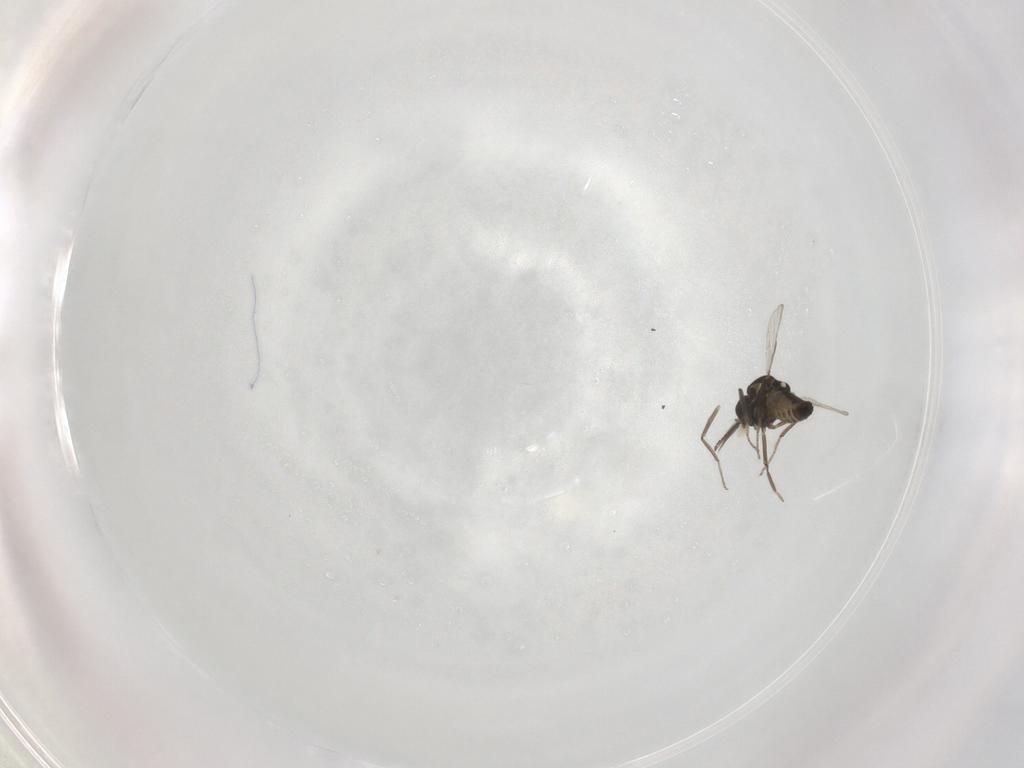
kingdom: Animalia
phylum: Arthropoda
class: Insecta
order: Diptera
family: Ceratopogonidae
